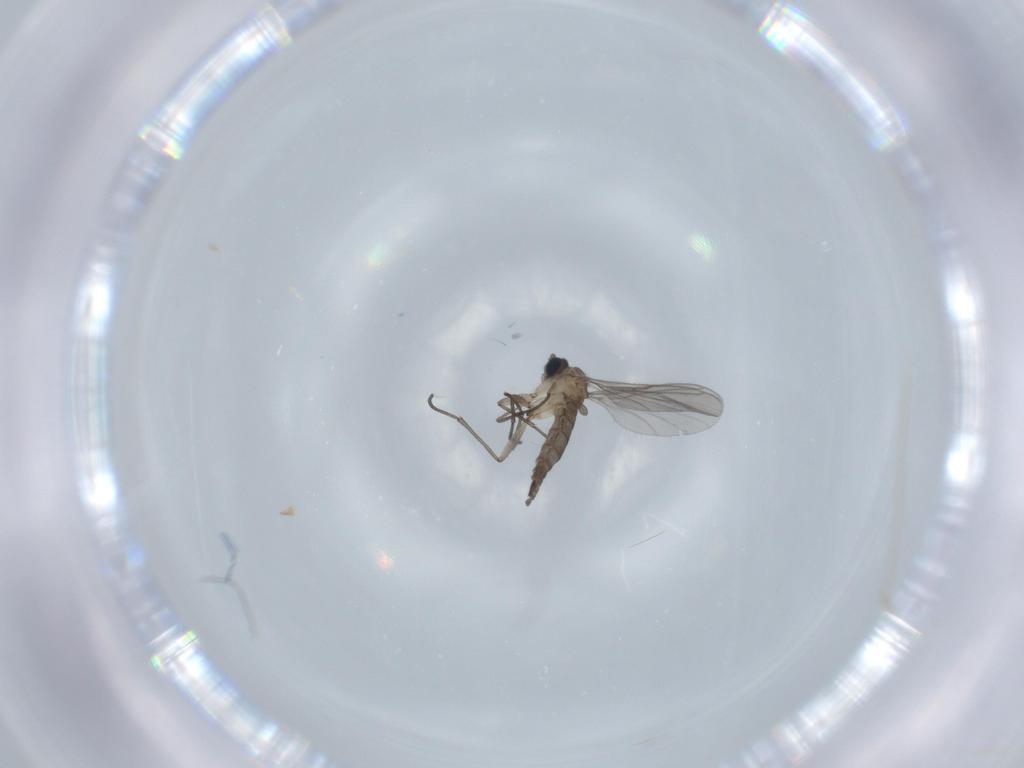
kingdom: Animalia
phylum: Arthropoda
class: Insecta
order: Diptera
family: Sciaridae
